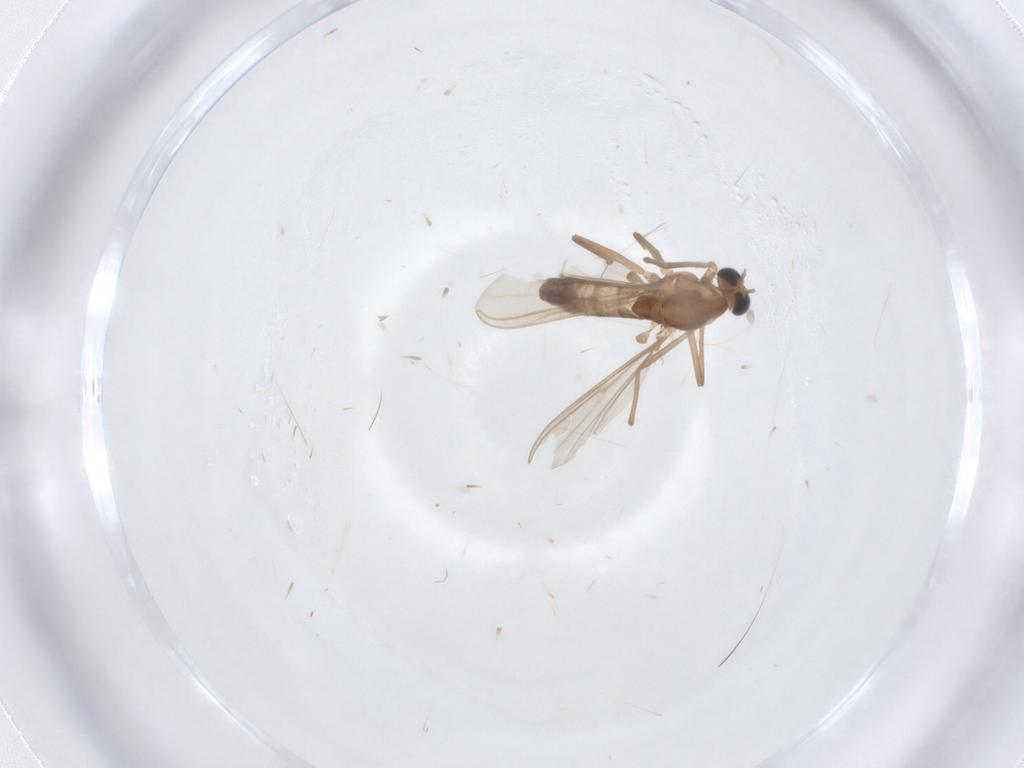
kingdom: Animalia
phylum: Arthropoda
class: Insecta
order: Diptera
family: Chironomidae
